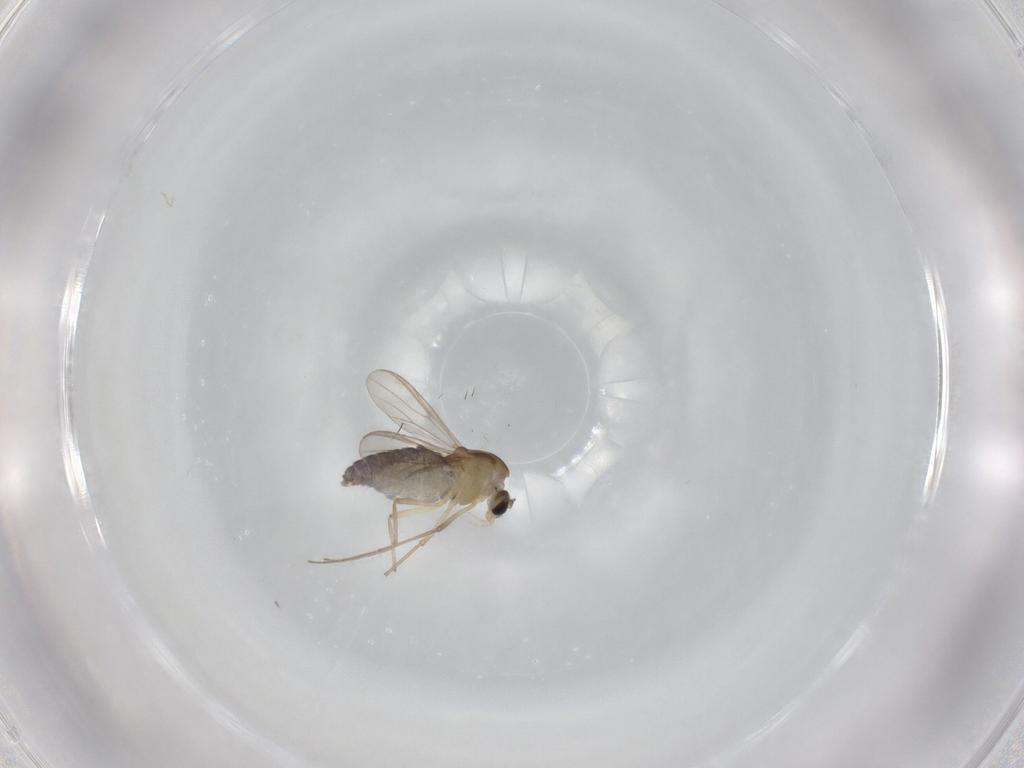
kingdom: Animalia
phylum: Arthropoda
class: Insecta
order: Diptera
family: Chironomidae
